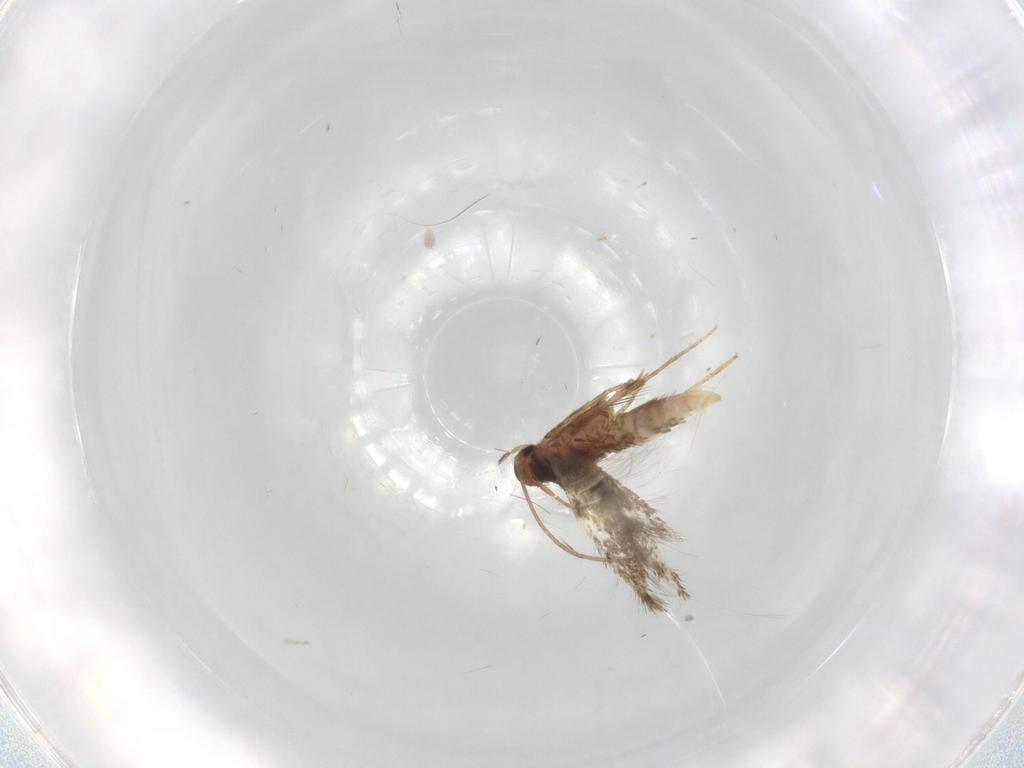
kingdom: Animalia
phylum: Arthropoda
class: Insecta
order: Lepidoptera
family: Elachistidae
